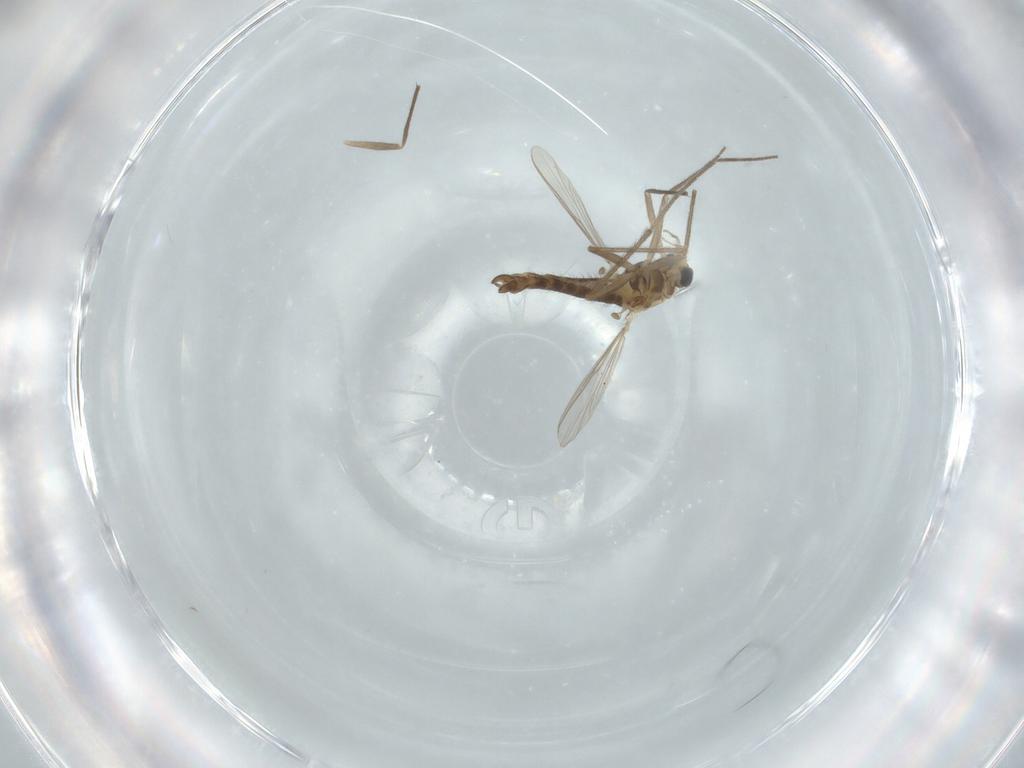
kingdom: Animalia
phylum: Arthropoda
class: Insecta
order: Diptera
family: Chironomidae
